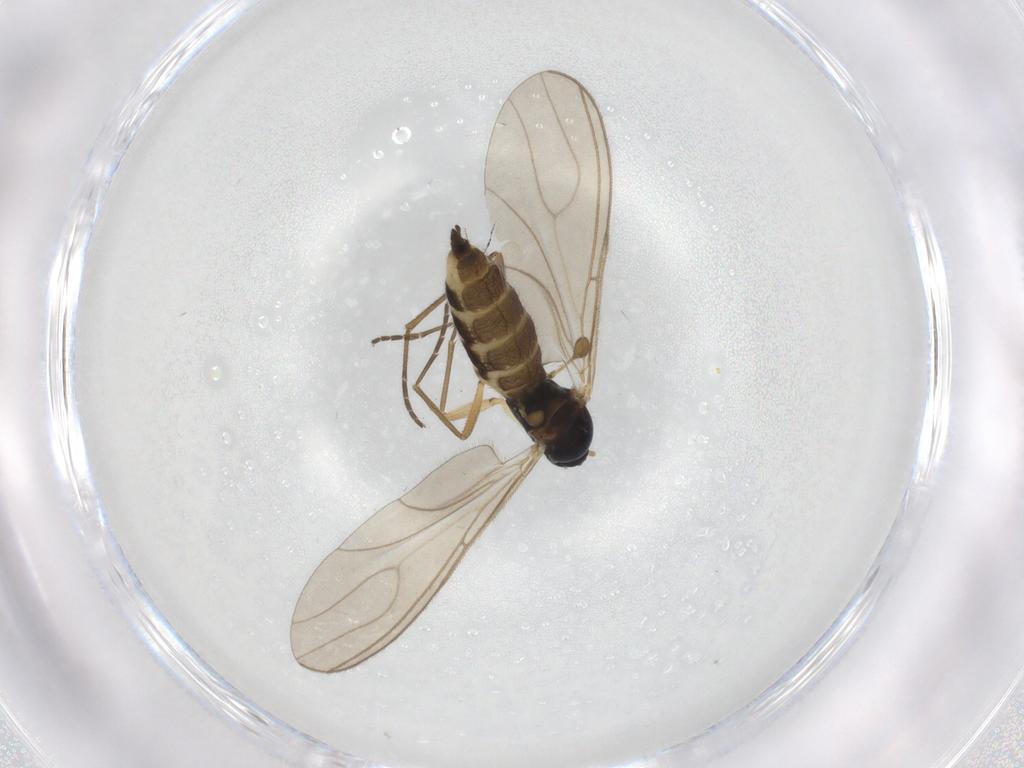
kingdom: Animalia
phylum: Arthropoda
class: Insecta
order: Diptera
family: Sciaridae
